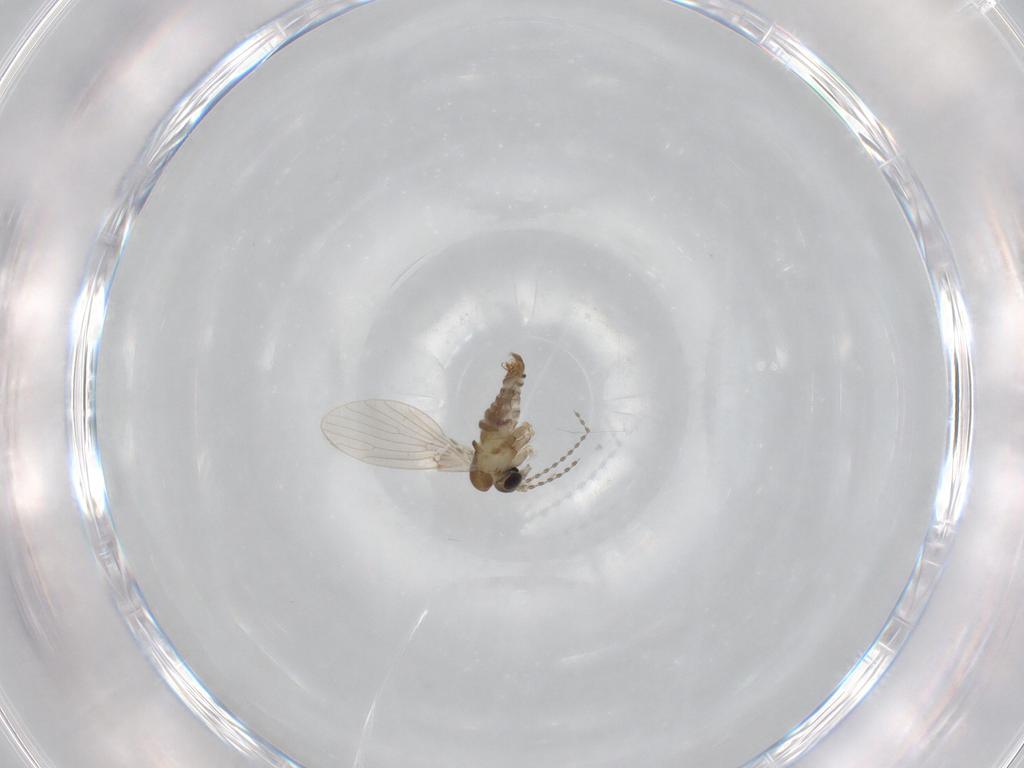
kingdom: Animalia
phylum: Arthropoda
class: Insecta
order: Diptera
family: Psychodidae
